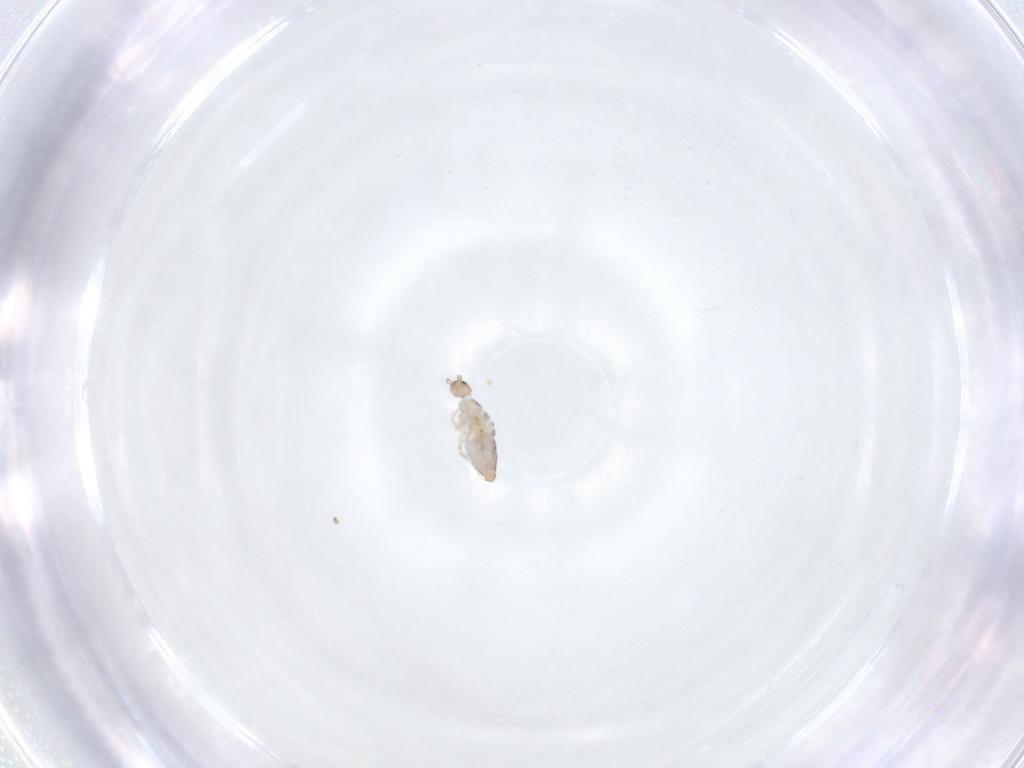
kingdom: Animalia
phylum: Arthropoda
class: Collembola
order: Entomobryomorpha
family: Entomobryidae
